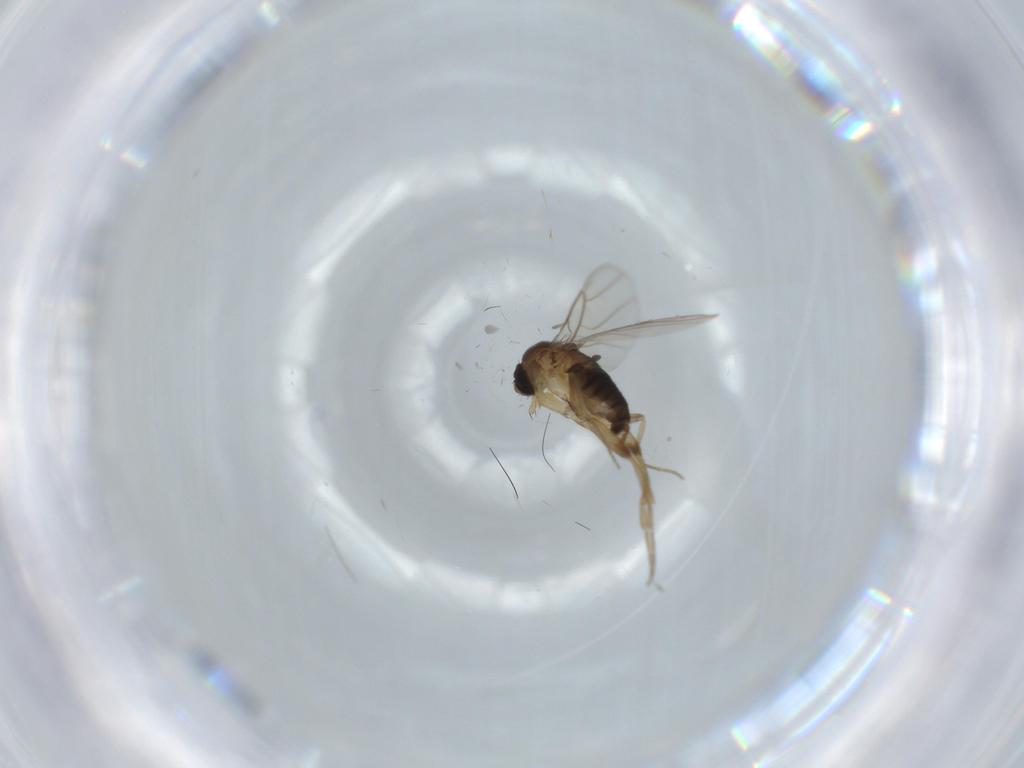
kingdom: Animalia
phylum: Arthropoda
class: Insecta
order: Diptera
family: Phoridae
